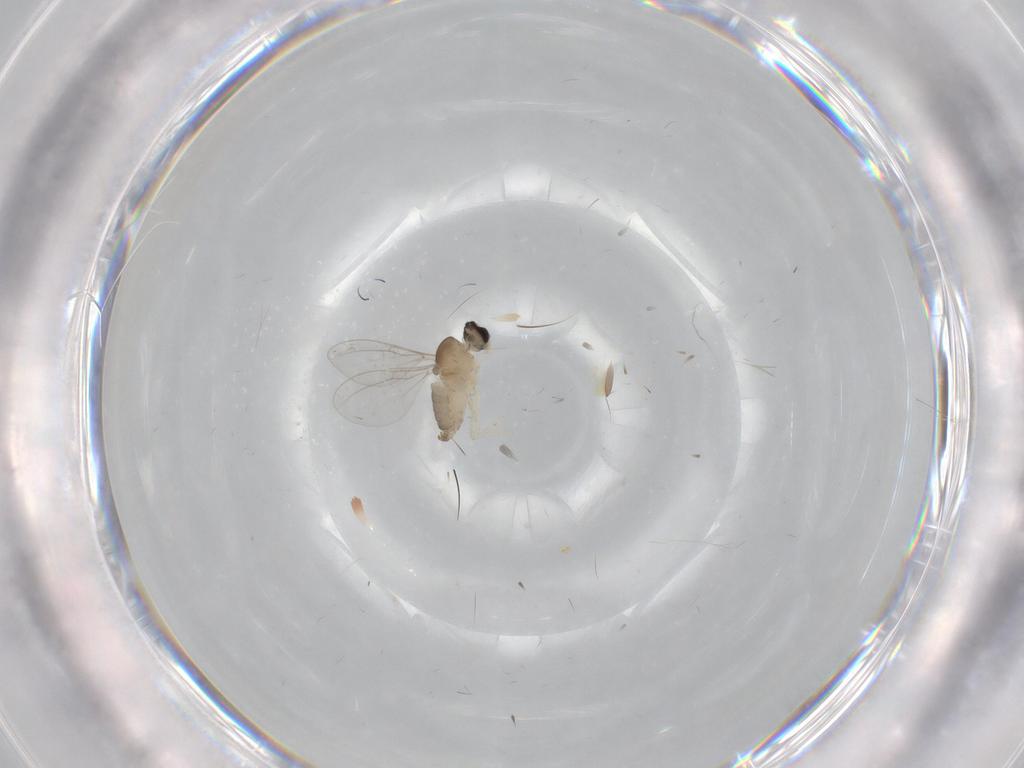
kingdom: Animalia
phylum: Arthropoda
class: Insecta
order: Diptera
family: Cecidomyiidae
